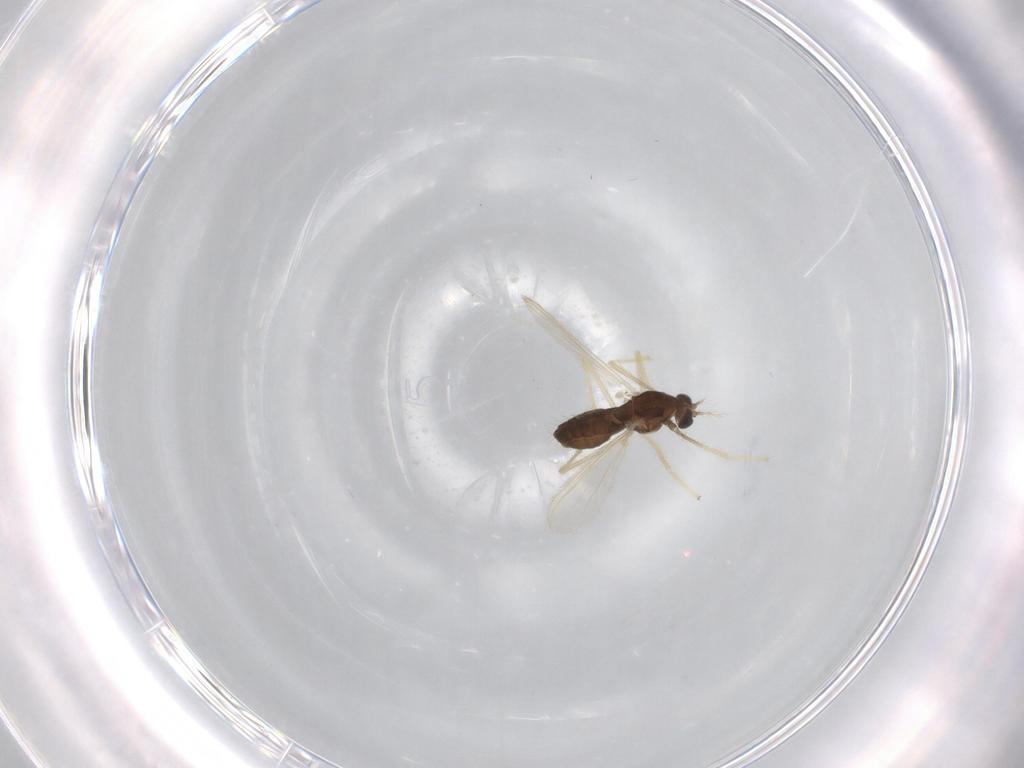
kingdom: Animalia
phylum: Arthropoda
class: Insecta
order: Diptera
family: Chironomidae
